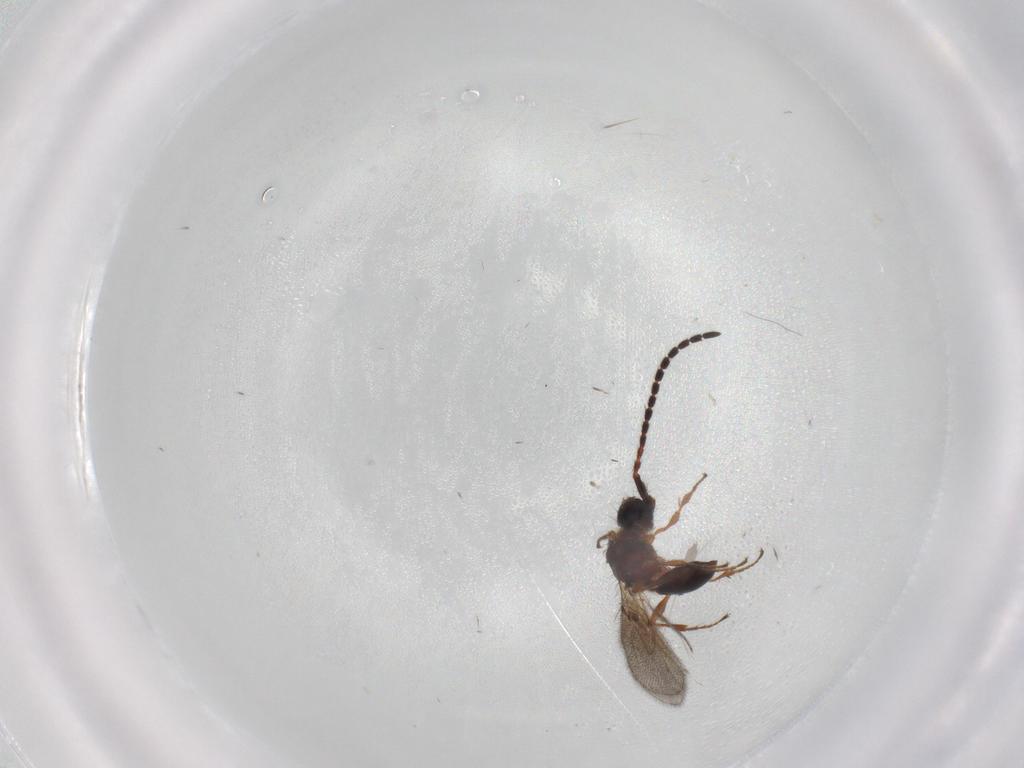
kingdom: Animalia
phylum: Arthropoda
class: Insecta
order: Hymenoptera
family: Diapriidae
